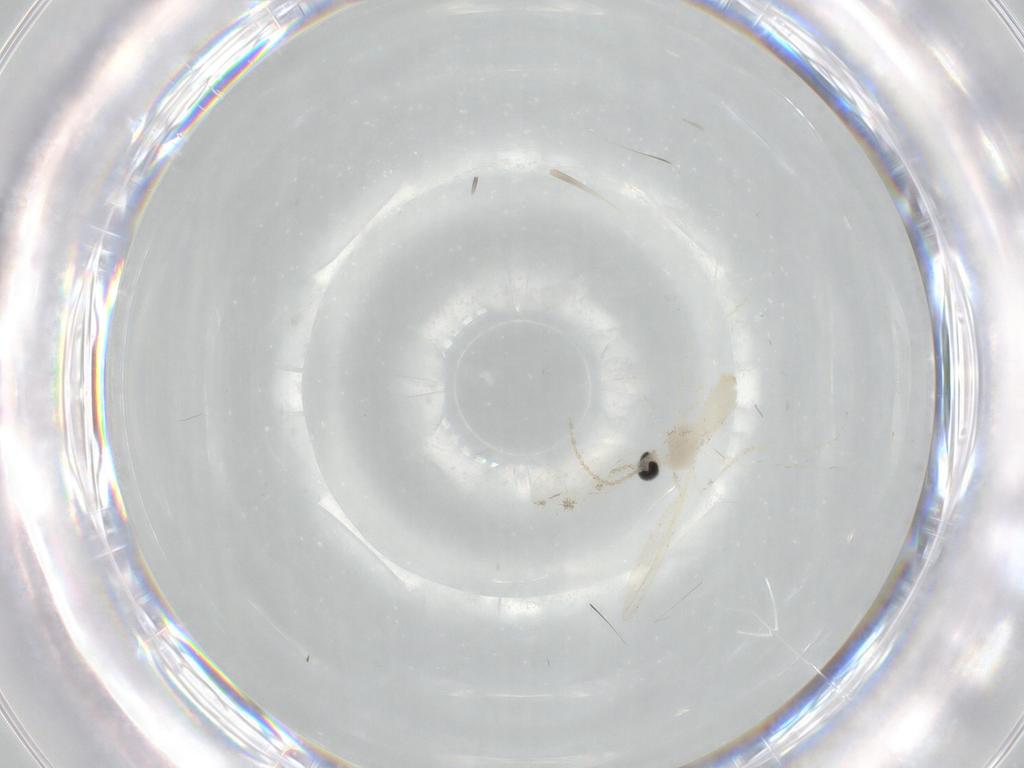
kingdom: Animalia
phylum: Arthropoda
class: Insecta
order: Diptera
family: Cecidomyiidae
